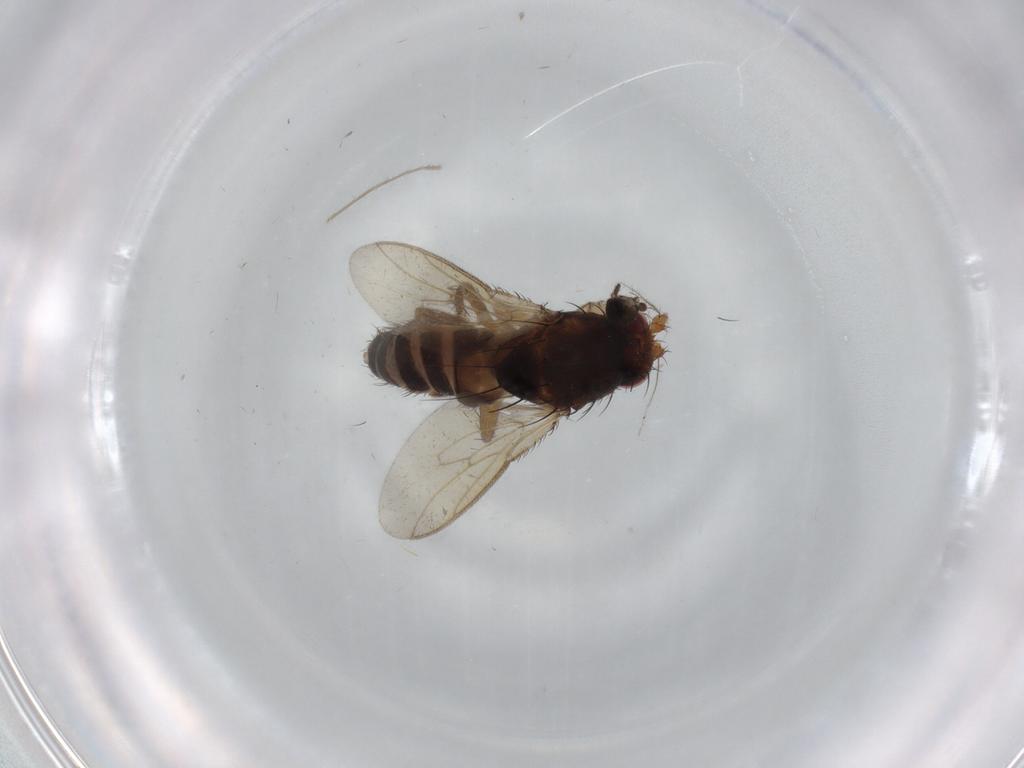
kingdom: Animalia
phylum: Arthropoda
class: Insecta
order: Diptera
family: Sphaeroceridae
